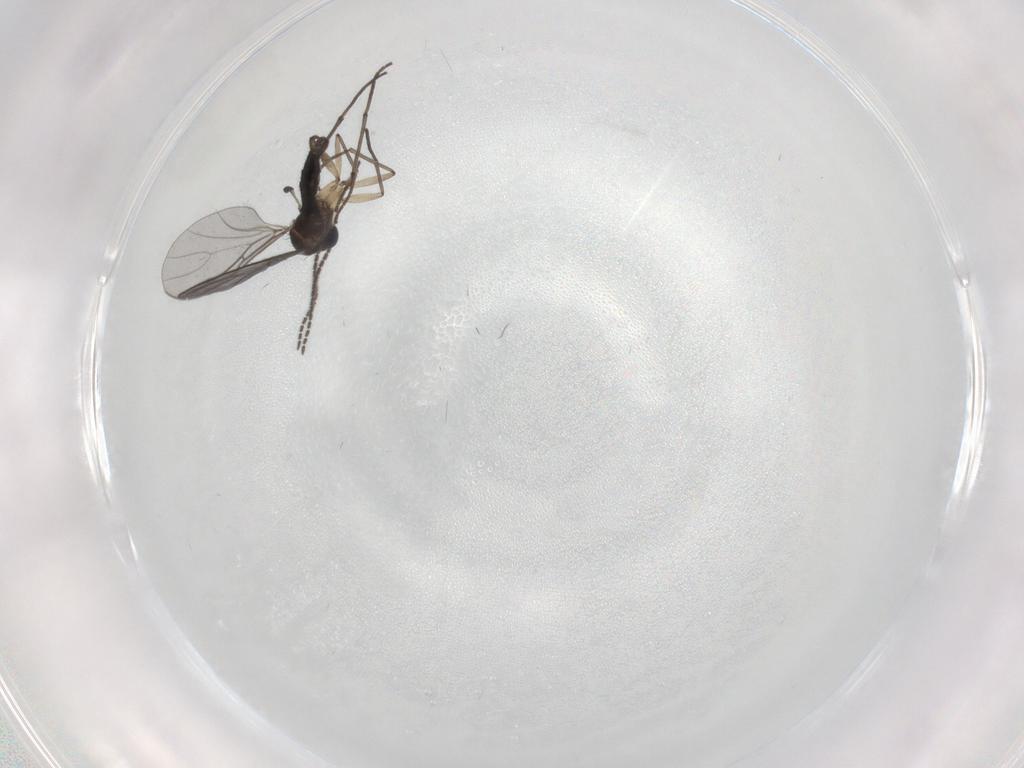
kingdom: Animalia
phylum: Arthropoda
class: Insecta
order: Diptera
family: Sciaridae
